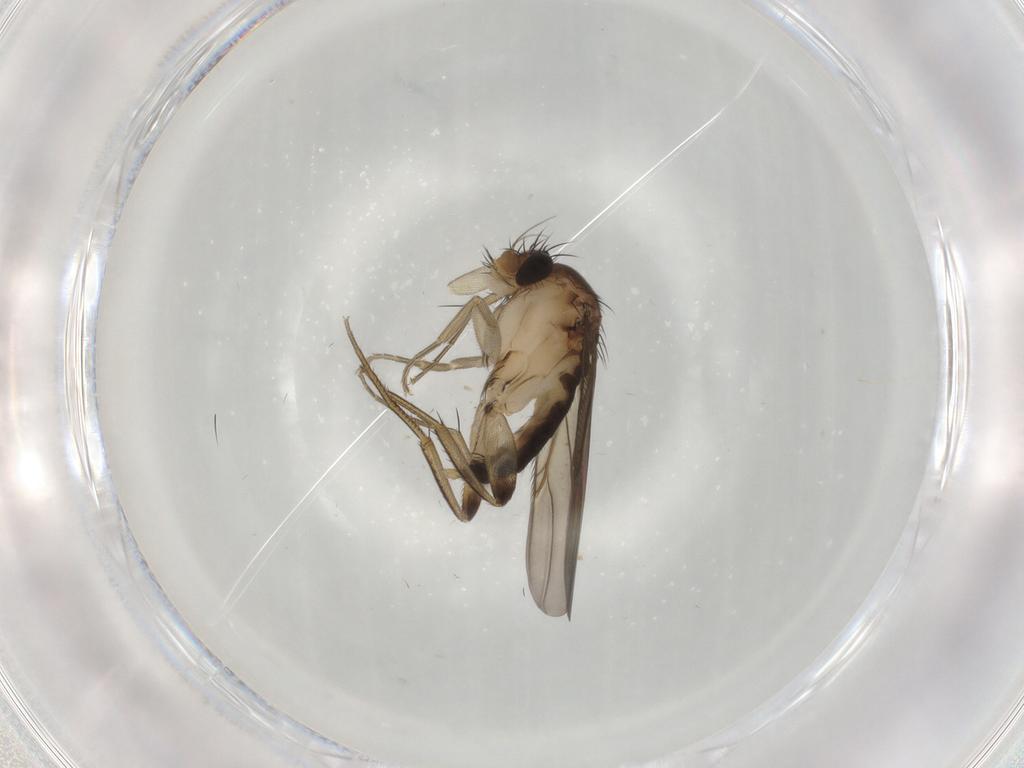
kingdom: Animalia
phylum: Arthropoda
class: Insecta
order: Diptera
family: Phoridae
